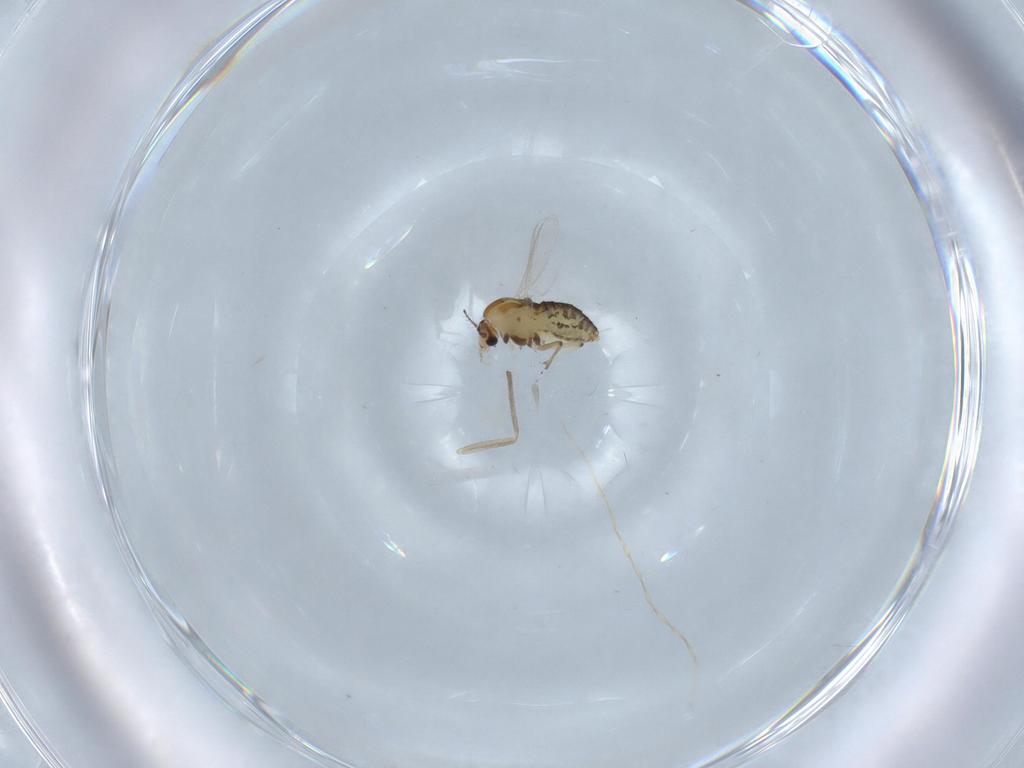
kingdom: Animalia
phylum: Arthropoda
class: Insecta
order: Diptera
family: Chironomidae
